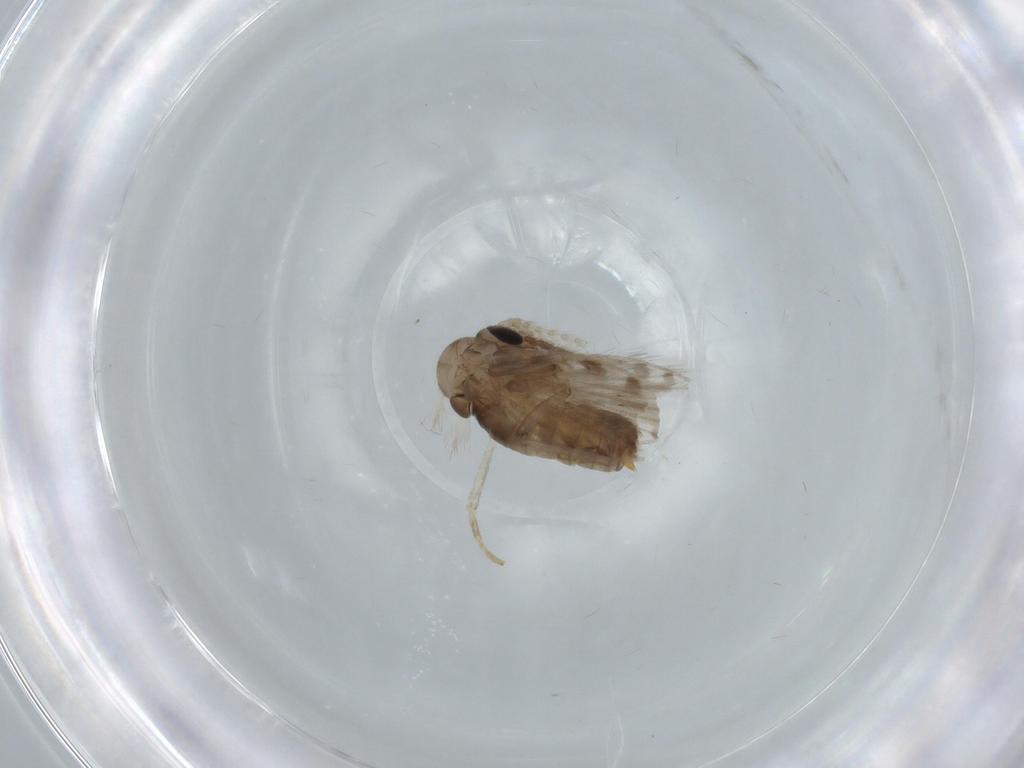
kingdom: Animalia
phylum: Arthropoda
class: Insecta
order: Diptera
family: Psychodidae
